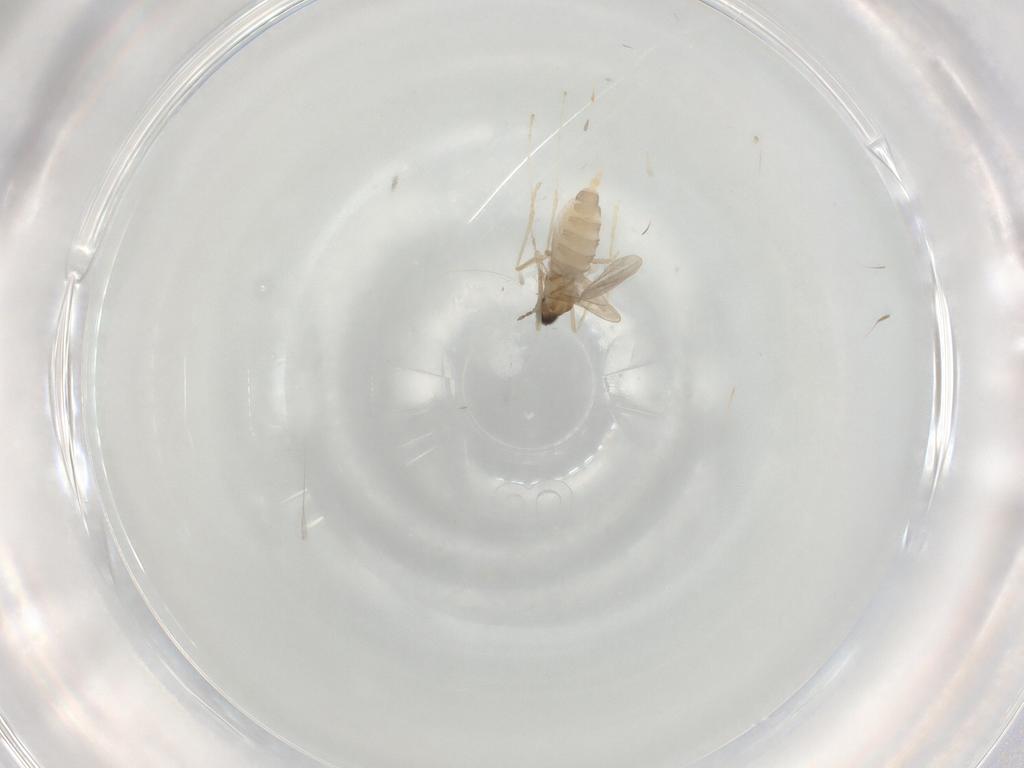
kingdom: Animalia
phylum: Arthropoda
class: Insecta
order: Diptera
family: Cecidomyiidae
